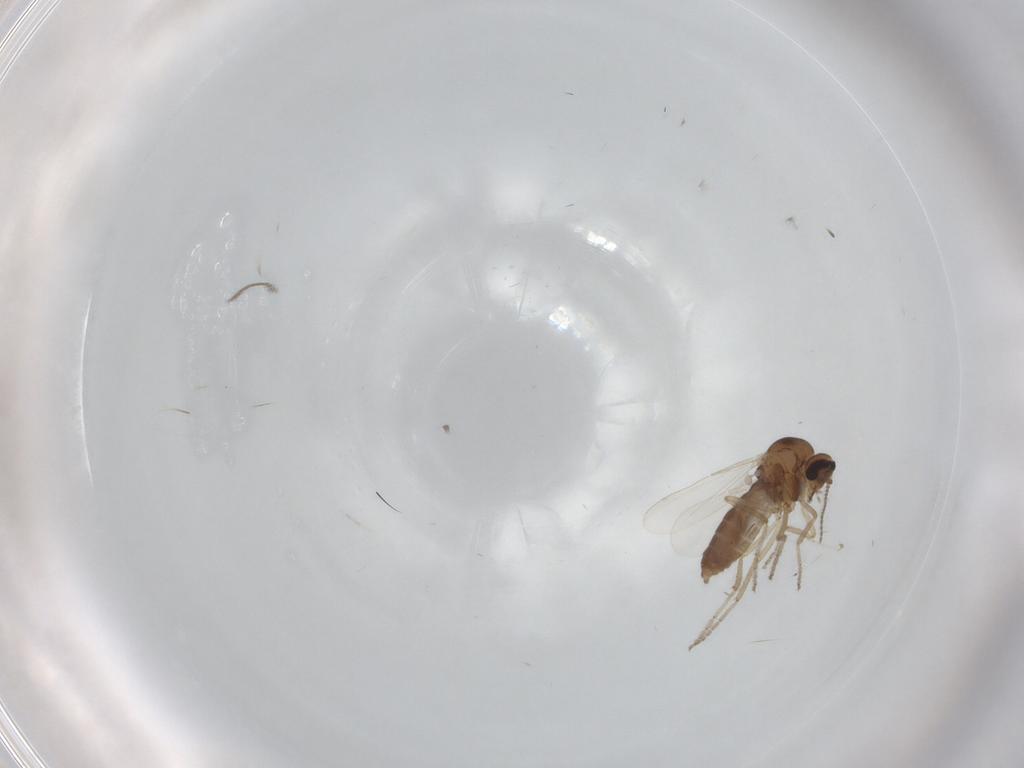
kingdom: Animalia
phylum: Arthropoda
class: Insecta
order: Diptera
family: Ceratopogonidae
